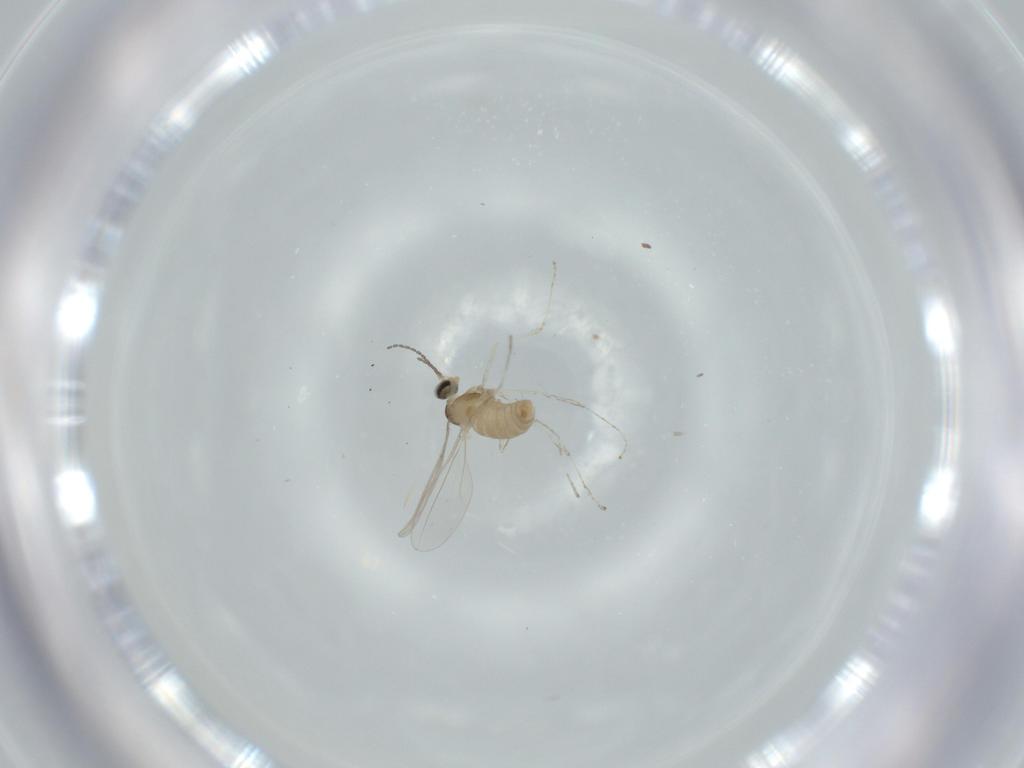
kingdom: Animalia
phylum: Arthropoda
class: Insecta
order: Diptera
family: Cecidomyiidae
